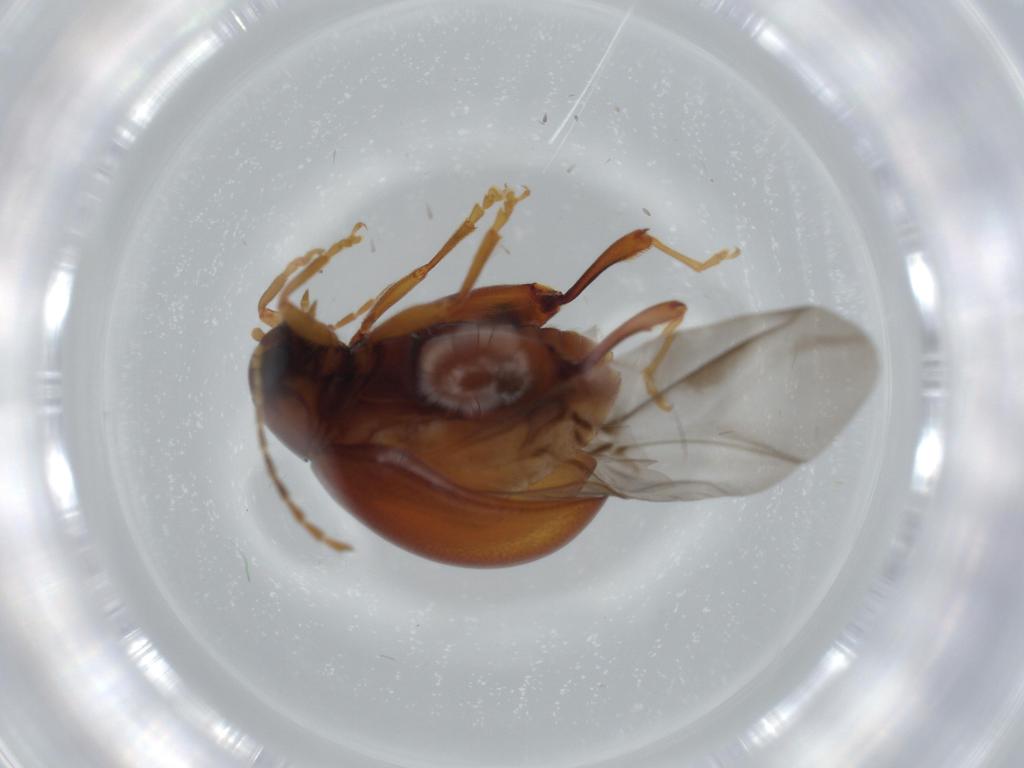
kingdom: Animalia
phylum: Arthropoda
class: Insecta
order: Coleoptera
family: Chrysomelidae
